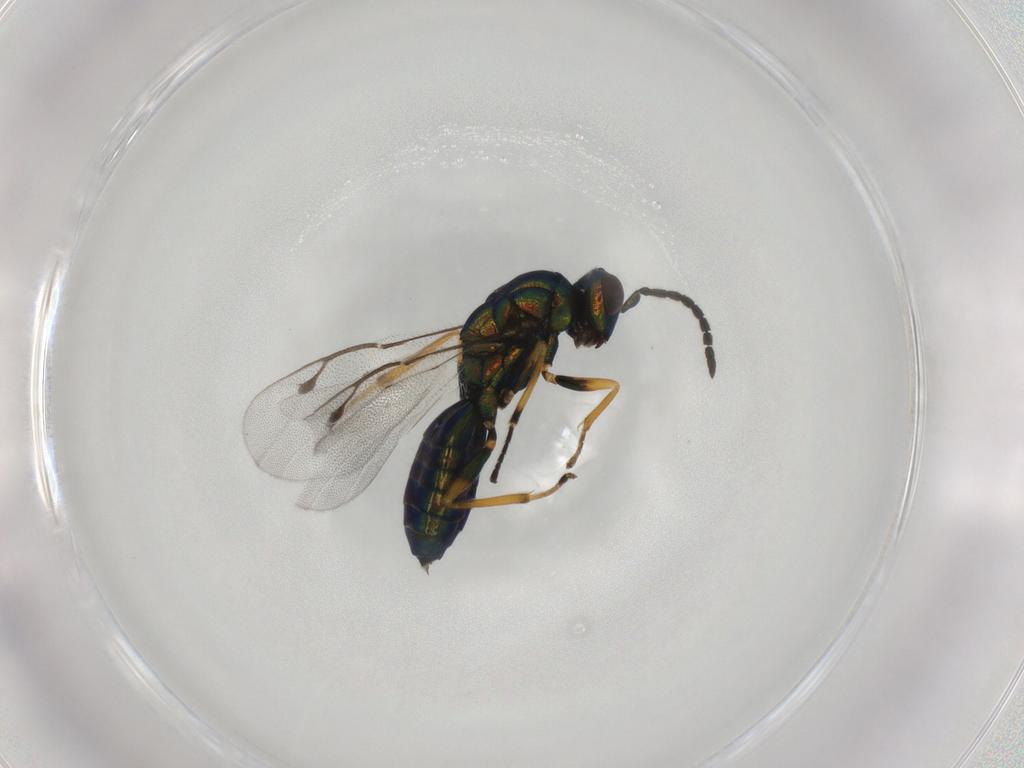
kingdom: Animalia
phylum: Arthropoda
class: Insecta
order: Hymenoptera
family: Pteromalidae
